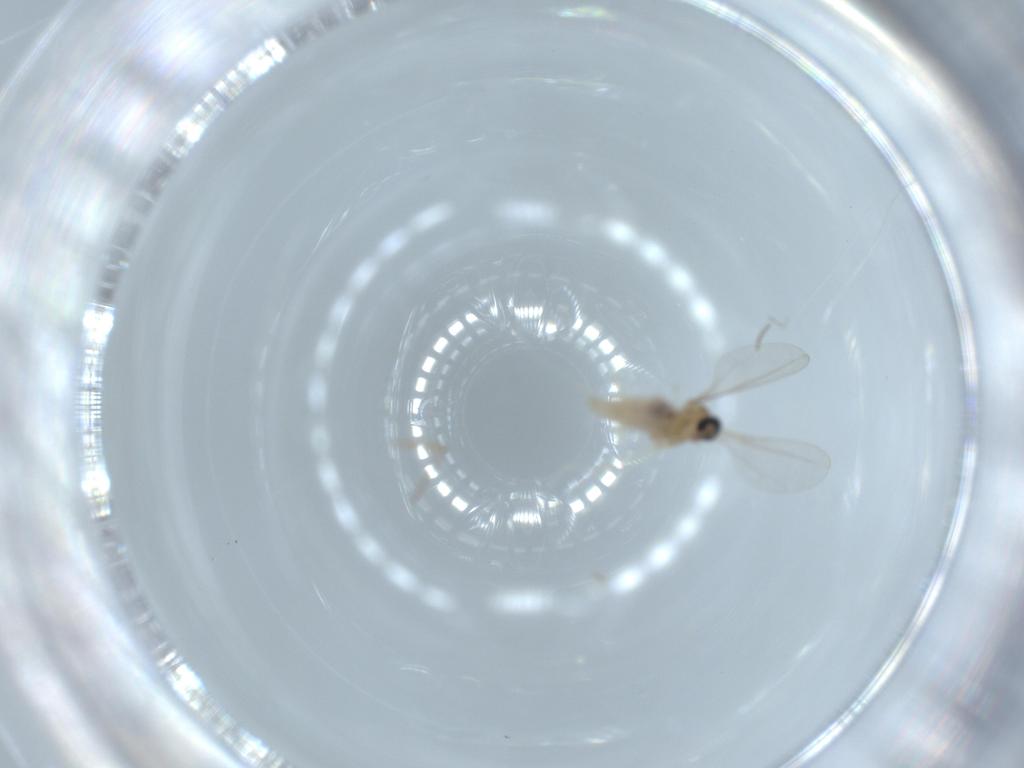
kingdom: Animalia
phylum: Arthropoda
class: Insecta
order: Diptera
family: Cecidomyiidae
